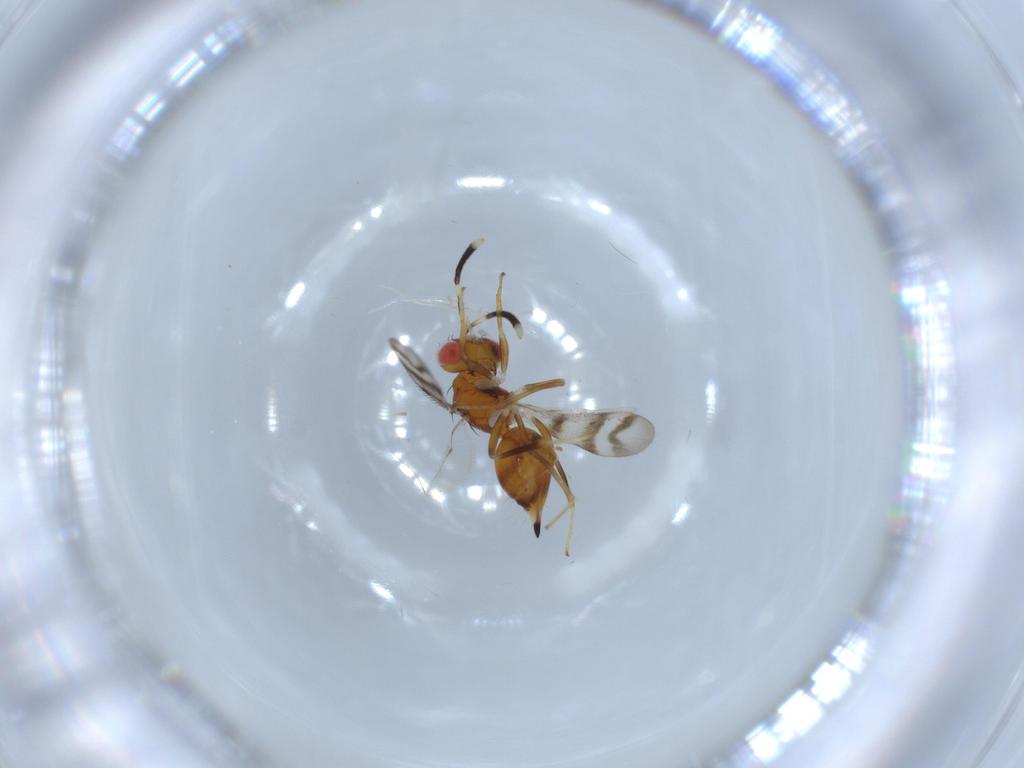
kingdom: Animalia
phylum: Arthropoda
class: Insecta
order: Hymenoptera
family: Diparidae
